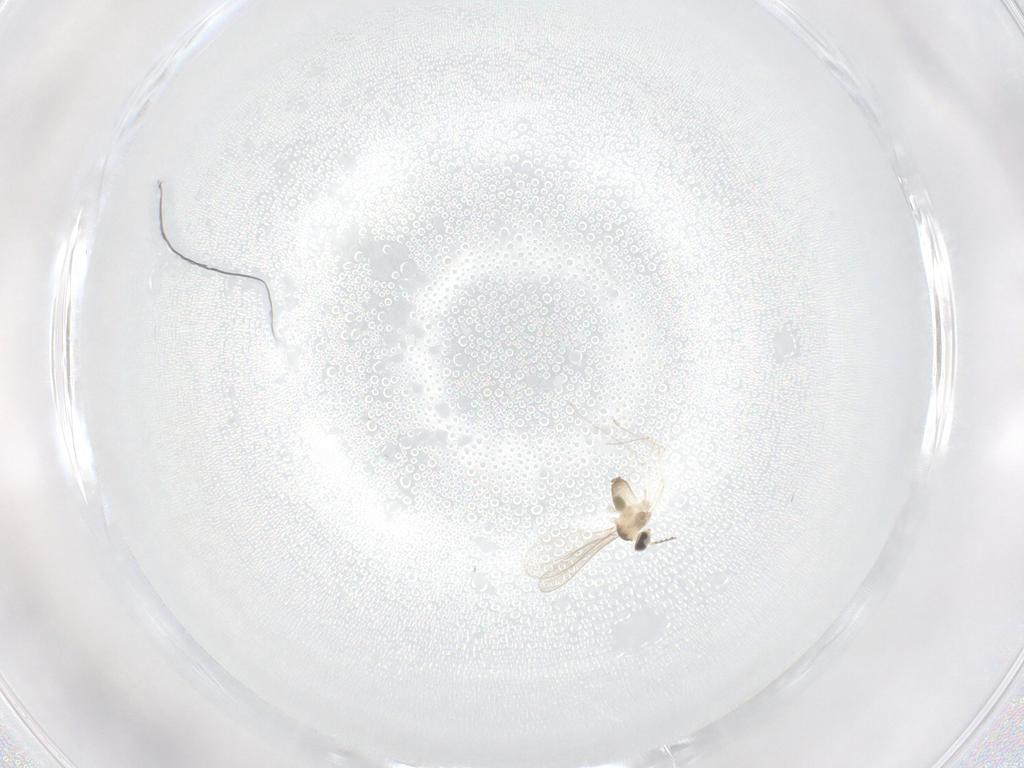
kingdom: Animalia
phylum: Arthropoda
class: Insecta
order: Diptera
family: Cecidomyiidae
